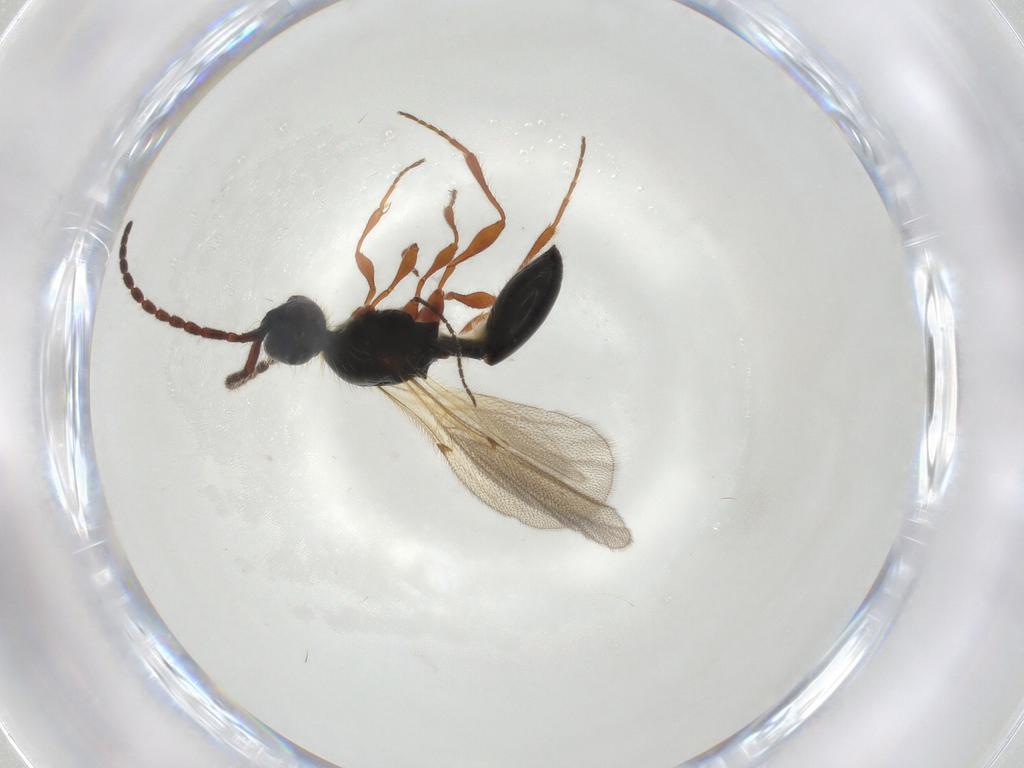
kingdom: Animalia
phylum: Arthropoda
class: Insecta
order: Hymenoptera
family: Diapriidae
